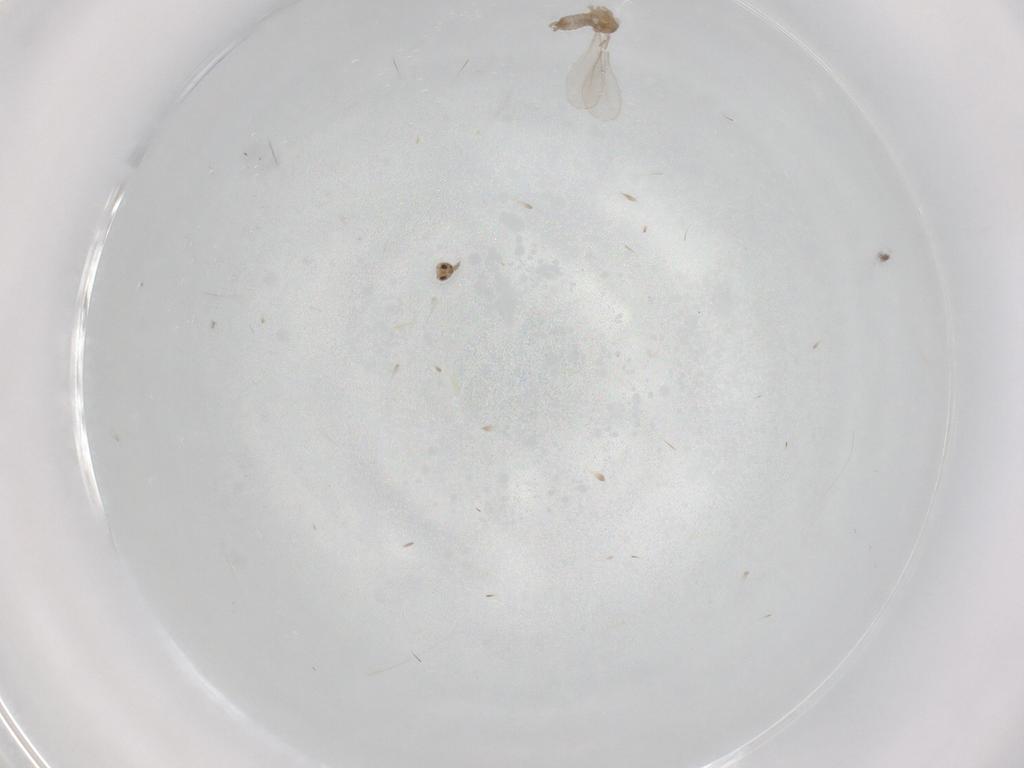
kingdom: Animalia
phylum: Arthropoda
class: Insecta
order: Diptera
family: Cecidomyiidae
